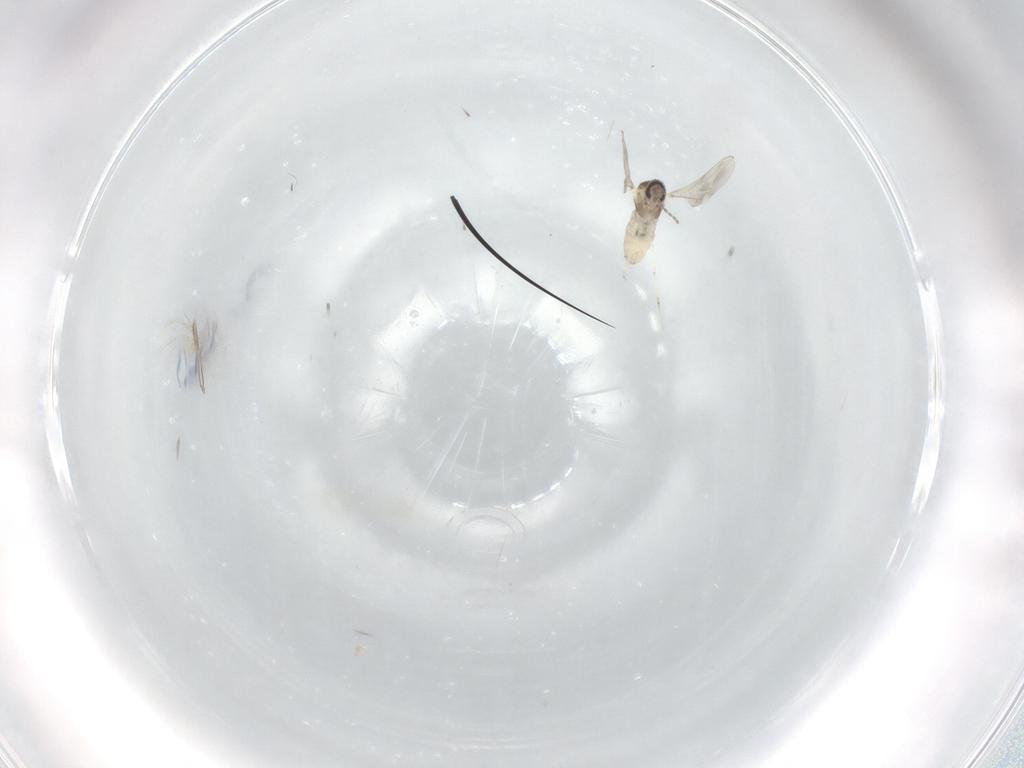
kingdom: Animalia
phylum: Arthropoda
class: Insecta
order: Diptera
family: Cecidomyiidae
